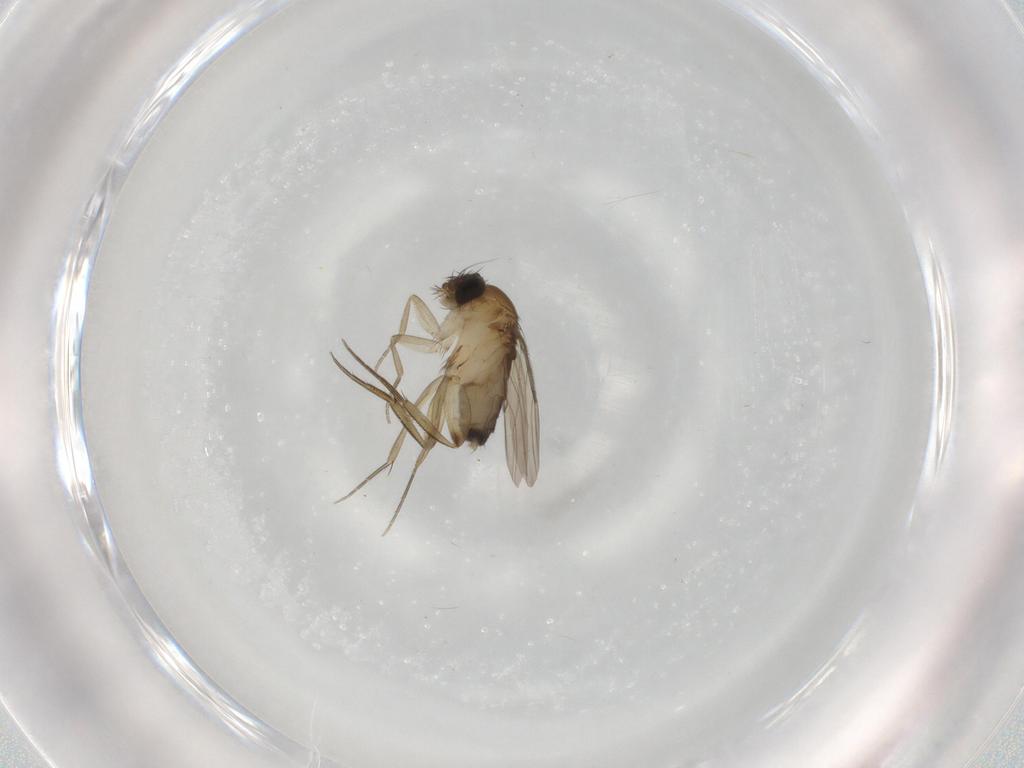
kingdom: Animalia
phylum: Arthropoda
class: Insecta
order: Diptera
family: Phoridae
